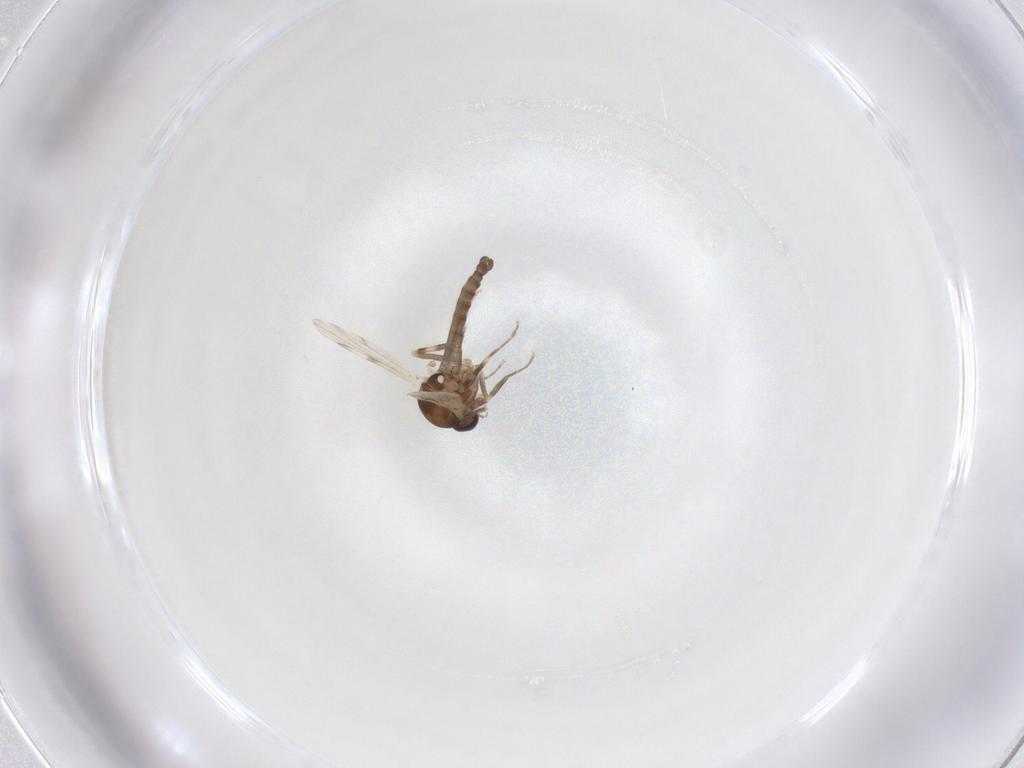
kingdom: Animalia
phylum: Arthropoda
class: Insecta
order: Diptera
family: Ceratopogonidae
